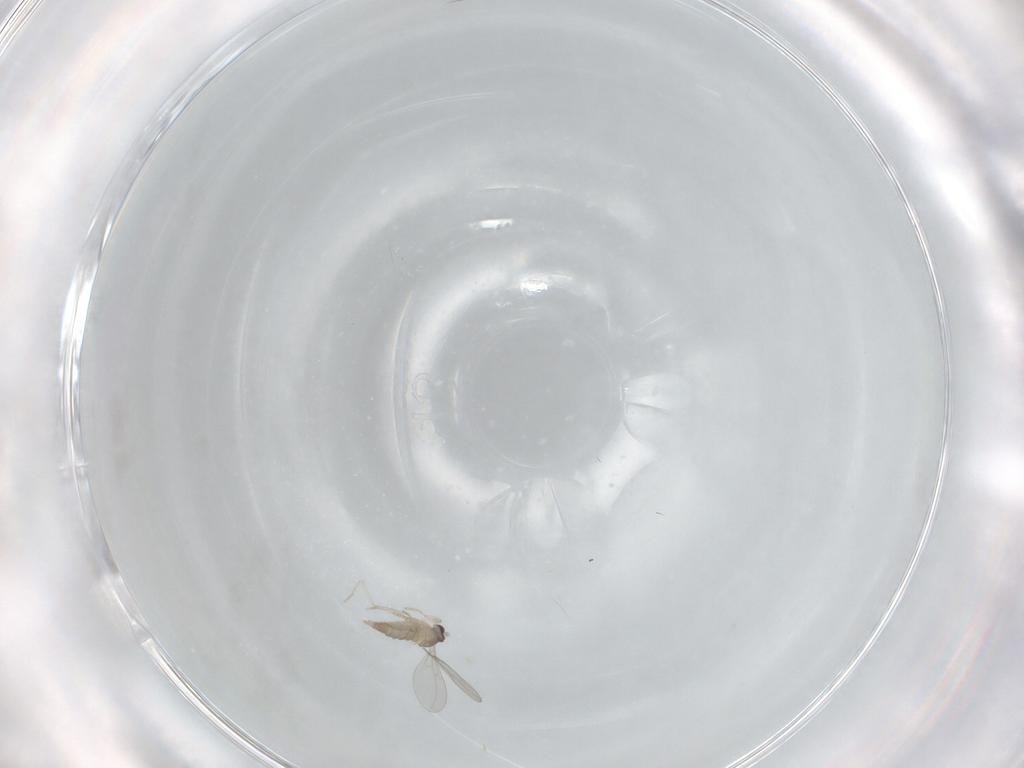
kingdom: Animalia
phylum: Arthropoda
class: Insecta
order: Diptera
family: Cecidomyiidae
